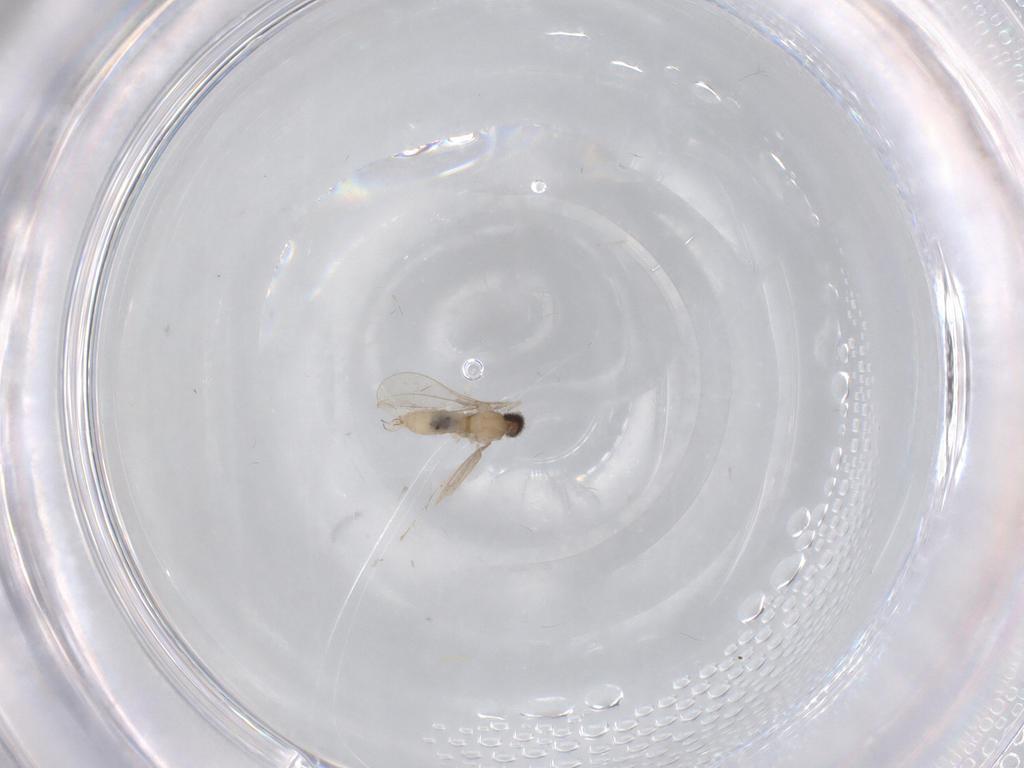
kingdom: Animalia
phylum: Arthropoda
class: Insecta
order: Diptera
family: Cecidomyiidae
